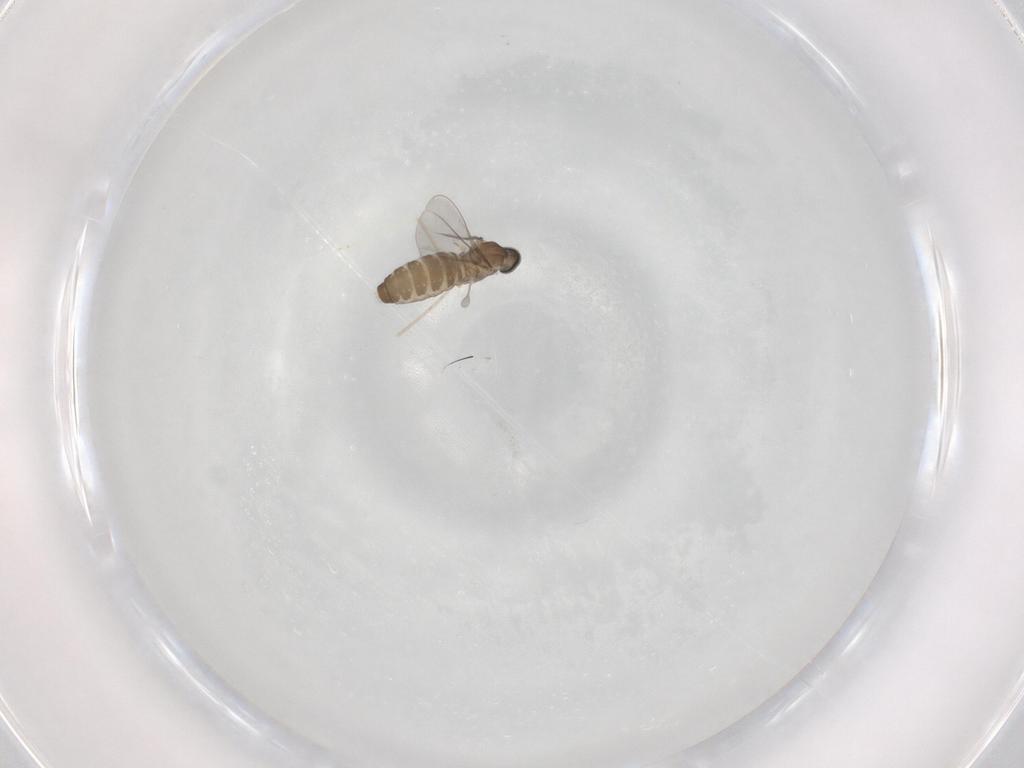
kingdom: Animalia
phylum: Arthropoda
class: Insecta
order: Diptera
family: Cecidomyiidae
